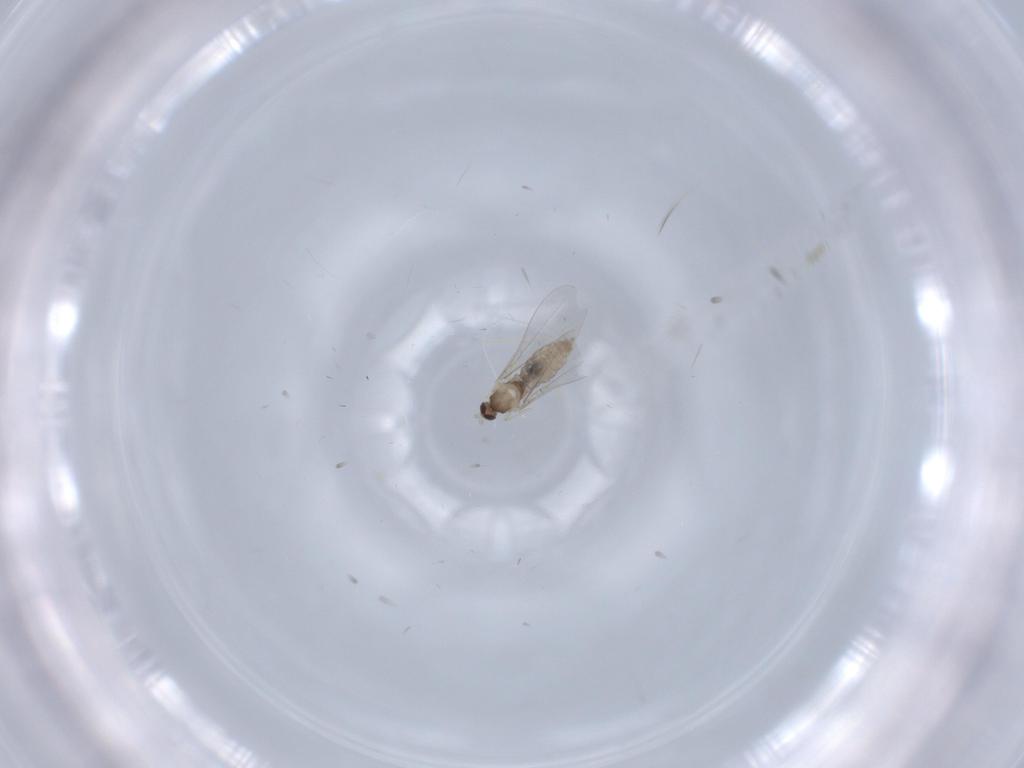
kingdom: Animalia
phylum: Arthropoda
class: Insecta
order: Diptera
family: Cecidomyiidae
